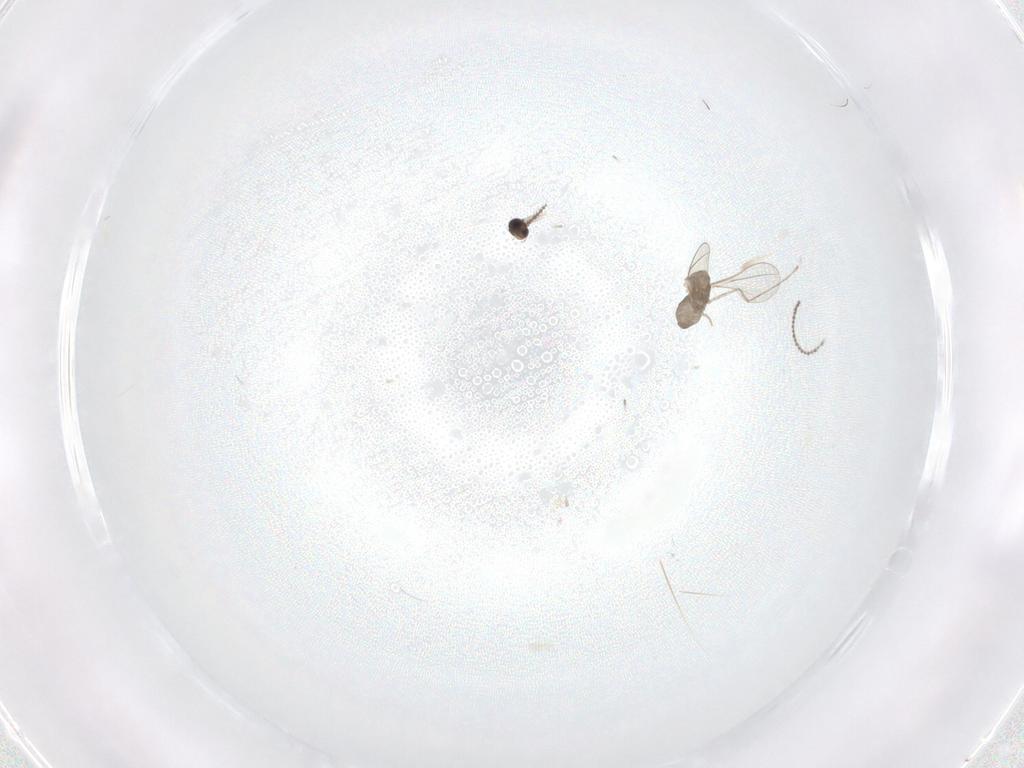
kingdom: Animalia
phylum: Arthropoda
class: Insecta
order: Diptera
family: Cecidomyiidae
